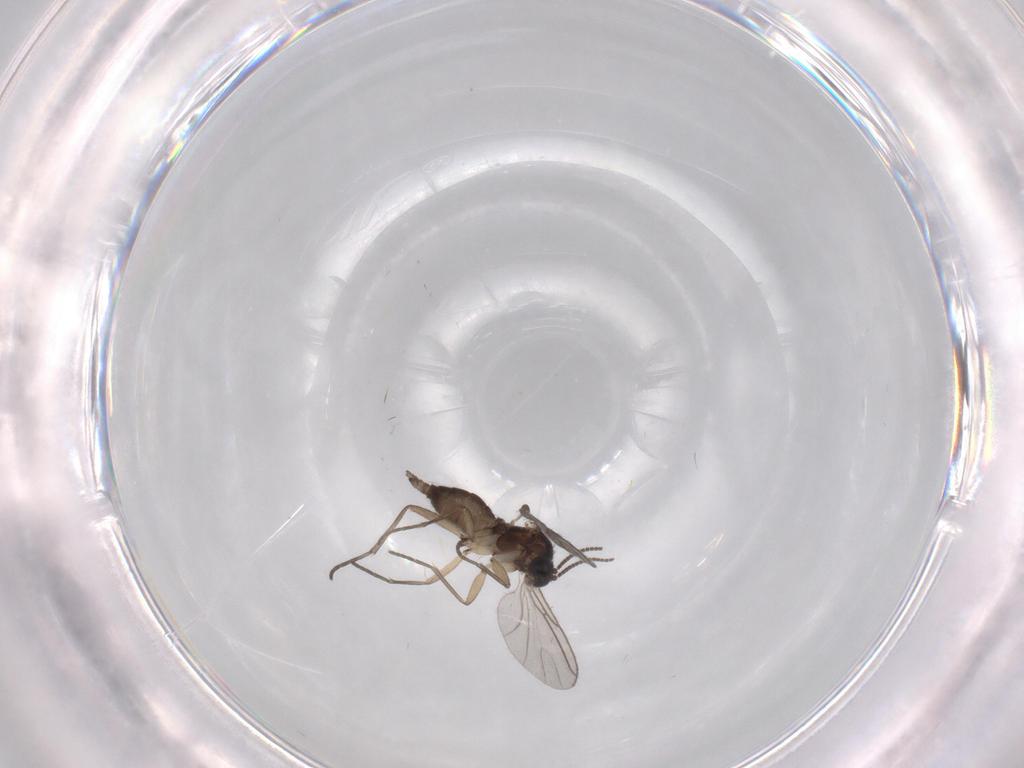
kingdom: Animalia
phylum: Arthropoda
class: Insecta
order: Diptera
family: Sciaridae
